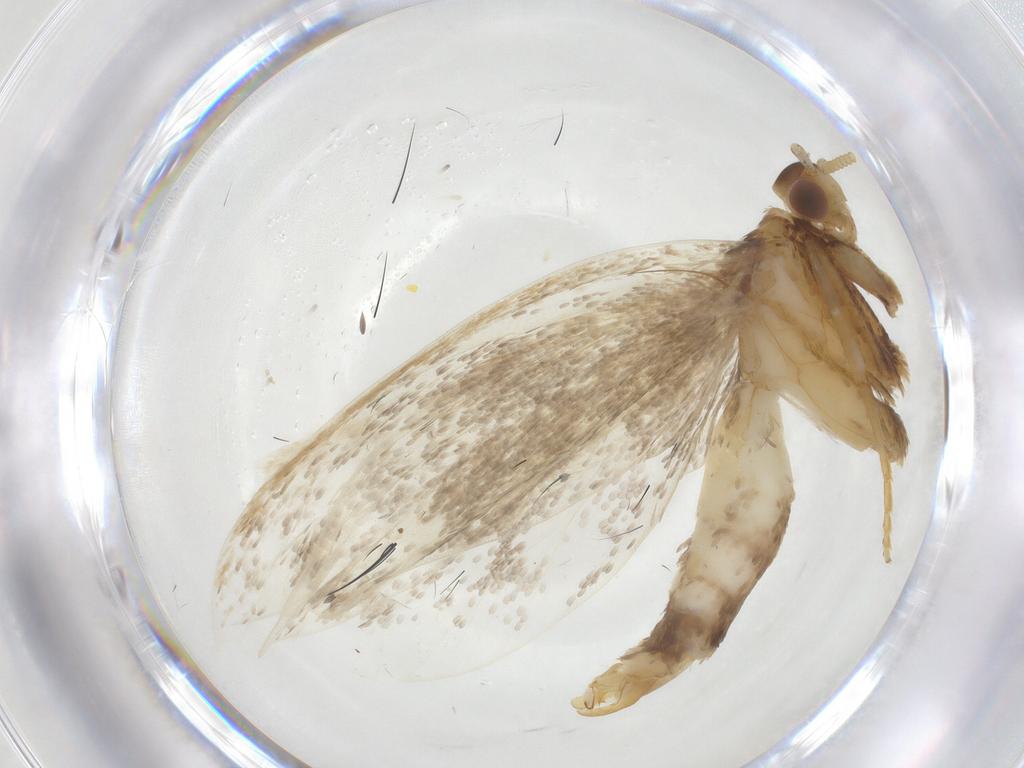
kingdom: Animalia
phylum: Arthropoda
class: Insecta
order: Lepidoptera
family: Lecithoceridae
